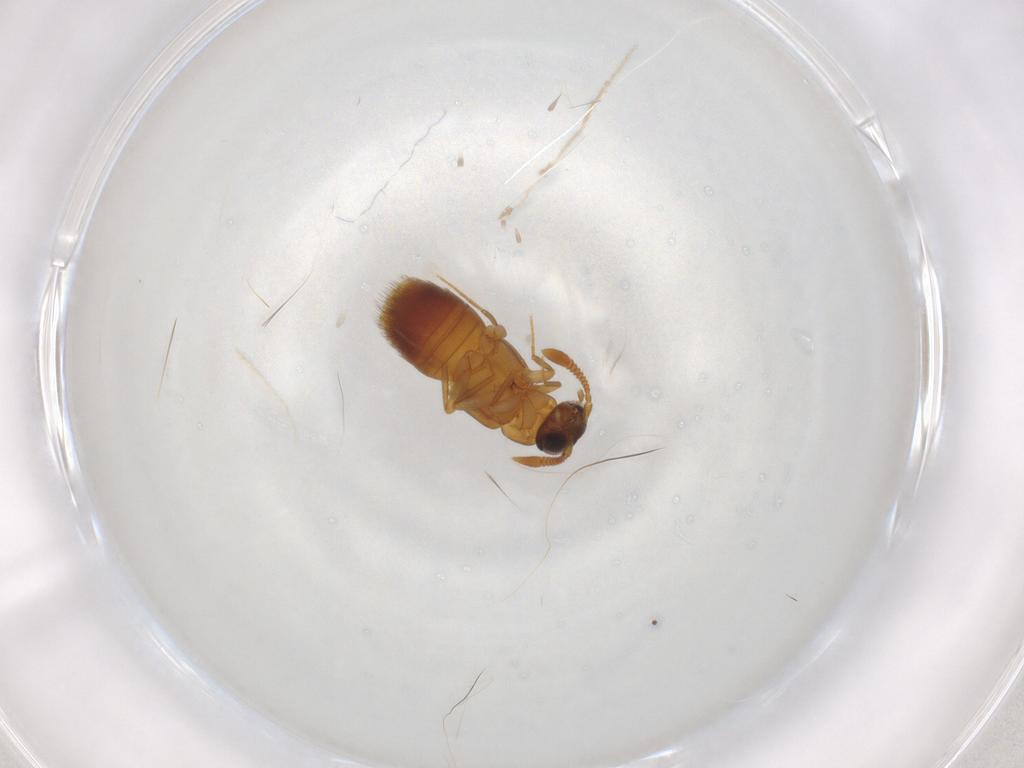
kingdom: Animalia
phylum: Arthropoda
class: Insecta
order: Coleoptera
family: Staphylinidae
